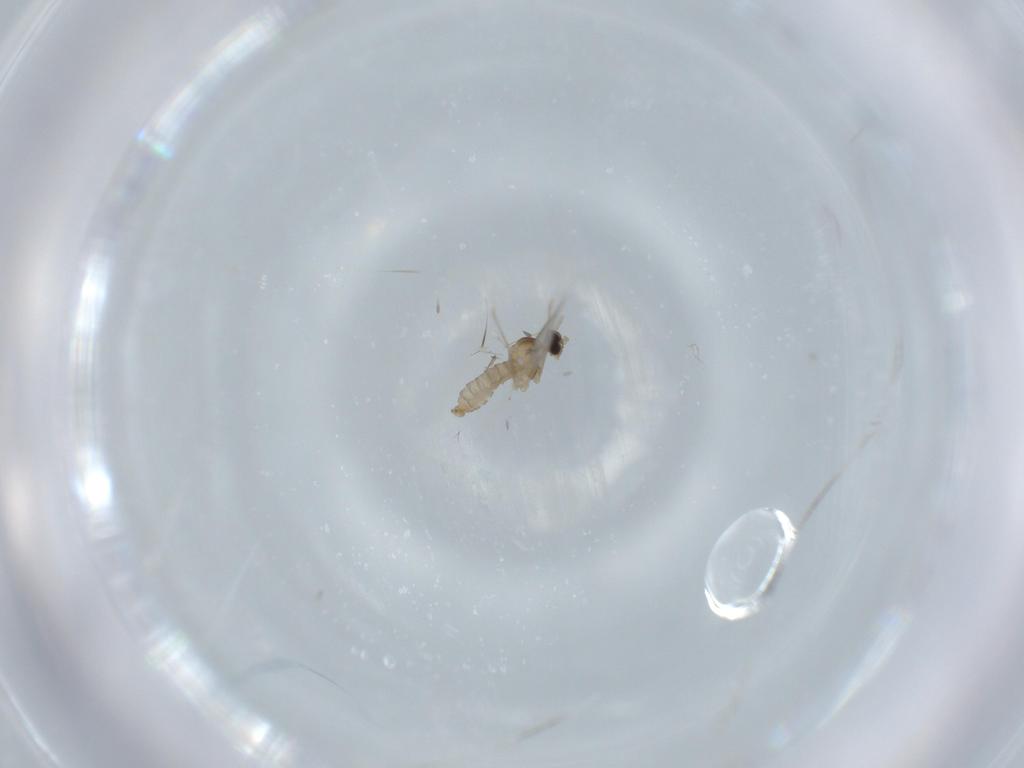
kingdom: Animalia
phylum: Arthropoda
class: Insecta
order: Diptera
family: Cecidomyiidae
